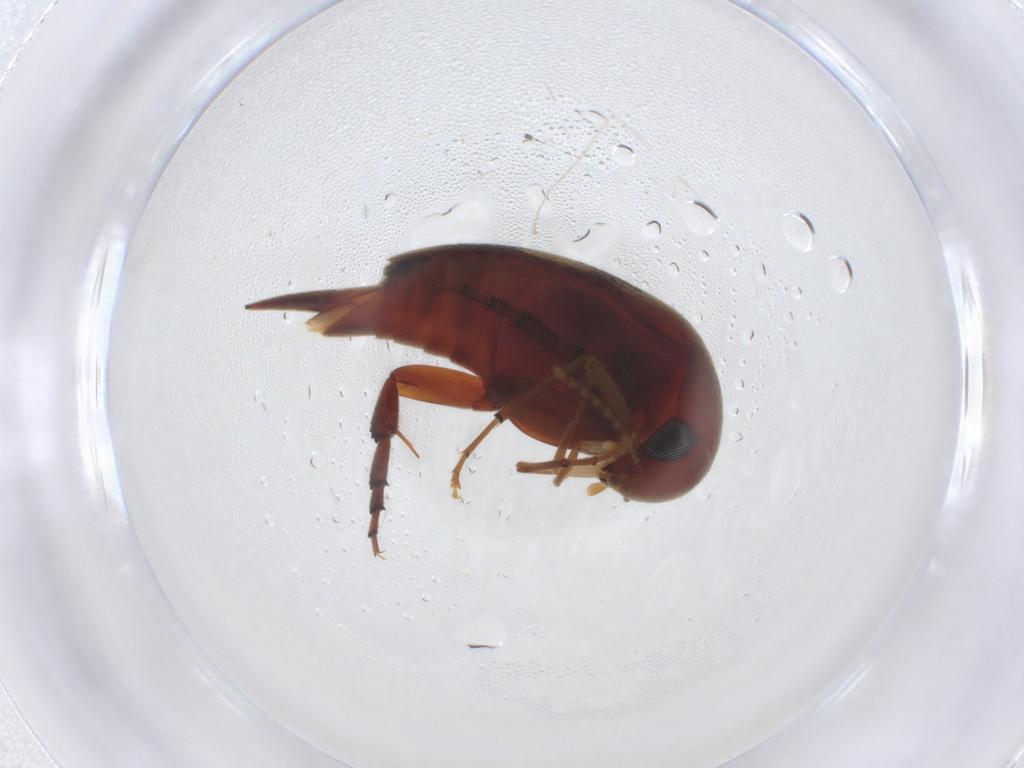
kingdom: Animalia
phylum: Arthropoda
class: Insecta
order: Coleoptera
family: Mordellidae
